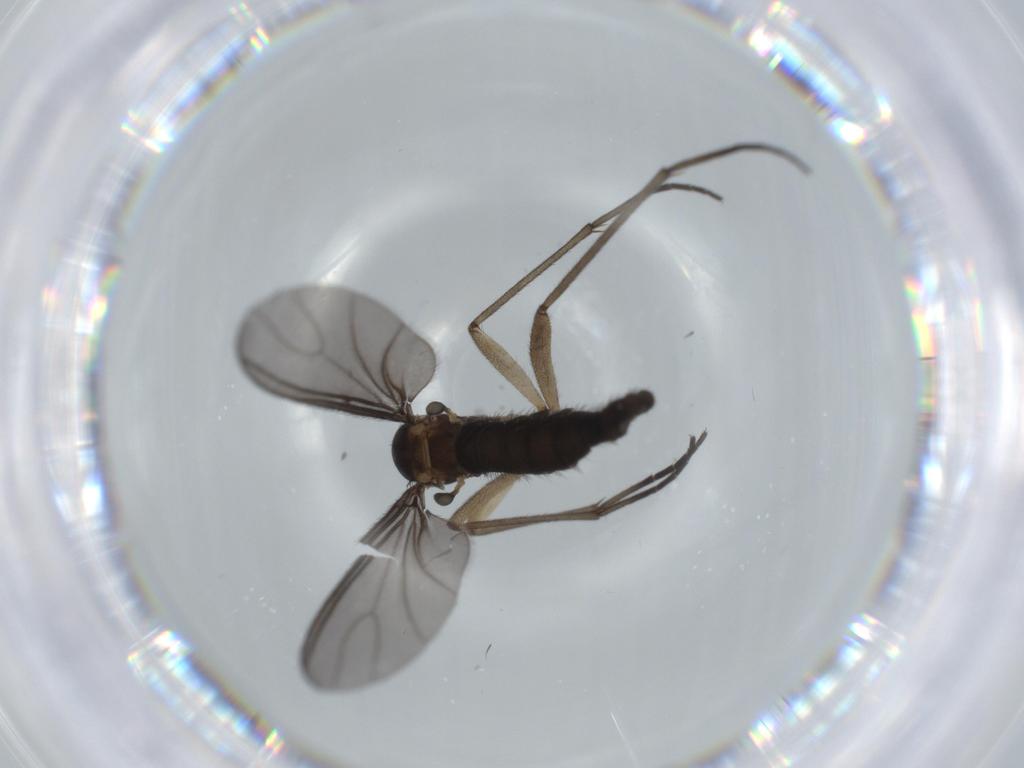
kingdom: Animalia
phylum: Arthropoda
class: Insecta
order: Diptera
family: Sciaridae
